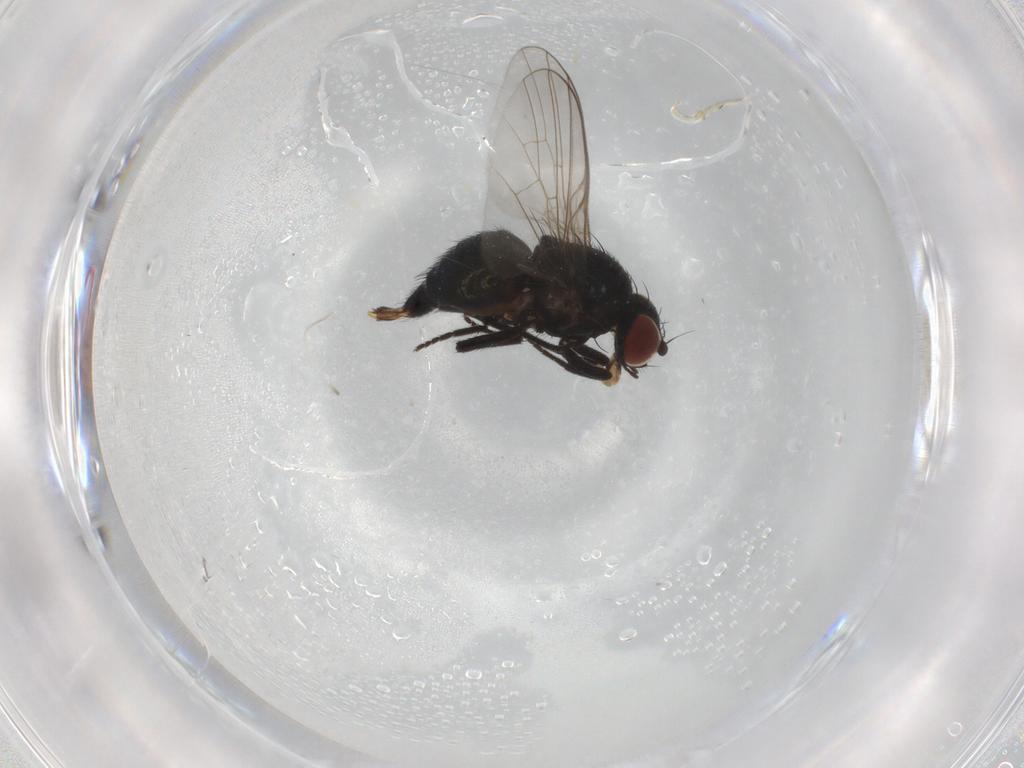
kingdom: Animalia
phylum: Arthropoda
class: Insecta
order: Diptera
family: Agromyzidae
